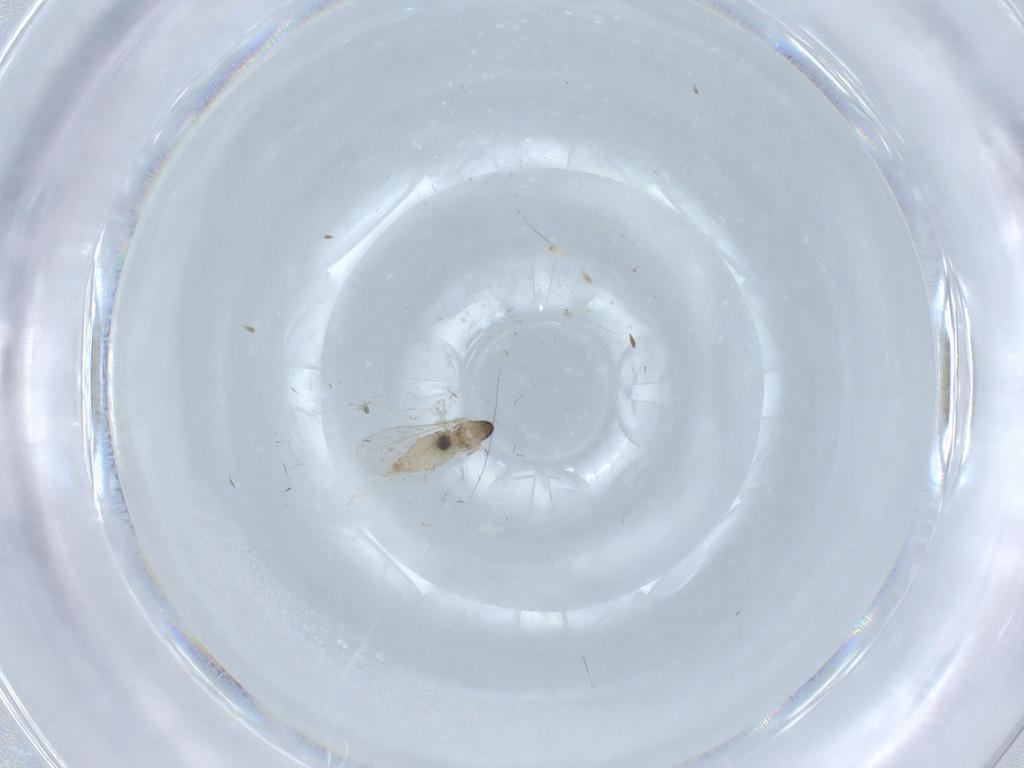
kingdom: Animalia
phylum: Arthropoda
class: Insecta
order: Diptera
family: Cecidomyiidae
